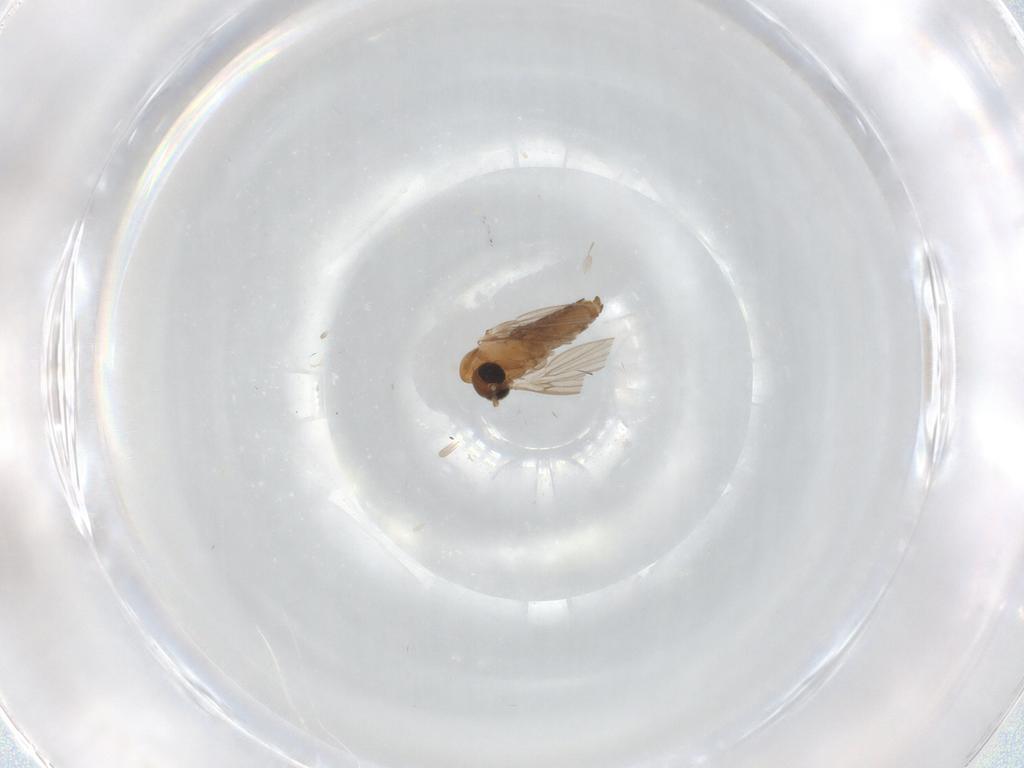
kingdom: Animalia
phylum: Arthropoda
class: Insecta
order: Diptera
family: Ceratopogonidae
